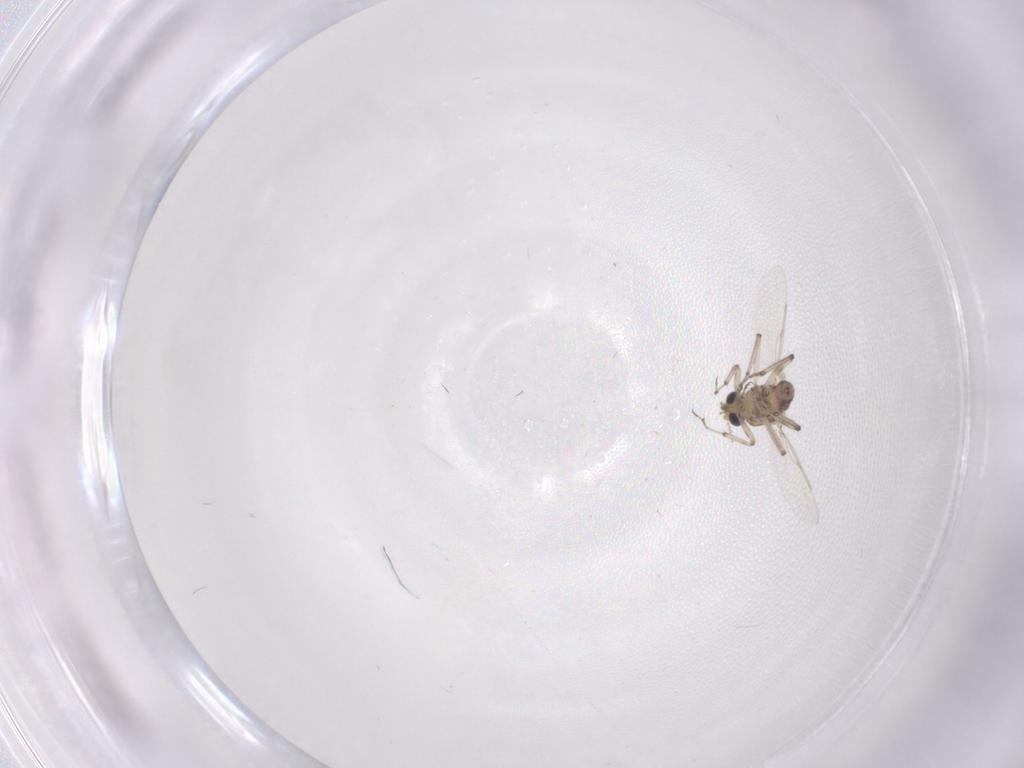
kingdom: Animalia
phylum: Arthropoda
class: Insecta
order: Diptera
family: Ceratopogonidae
